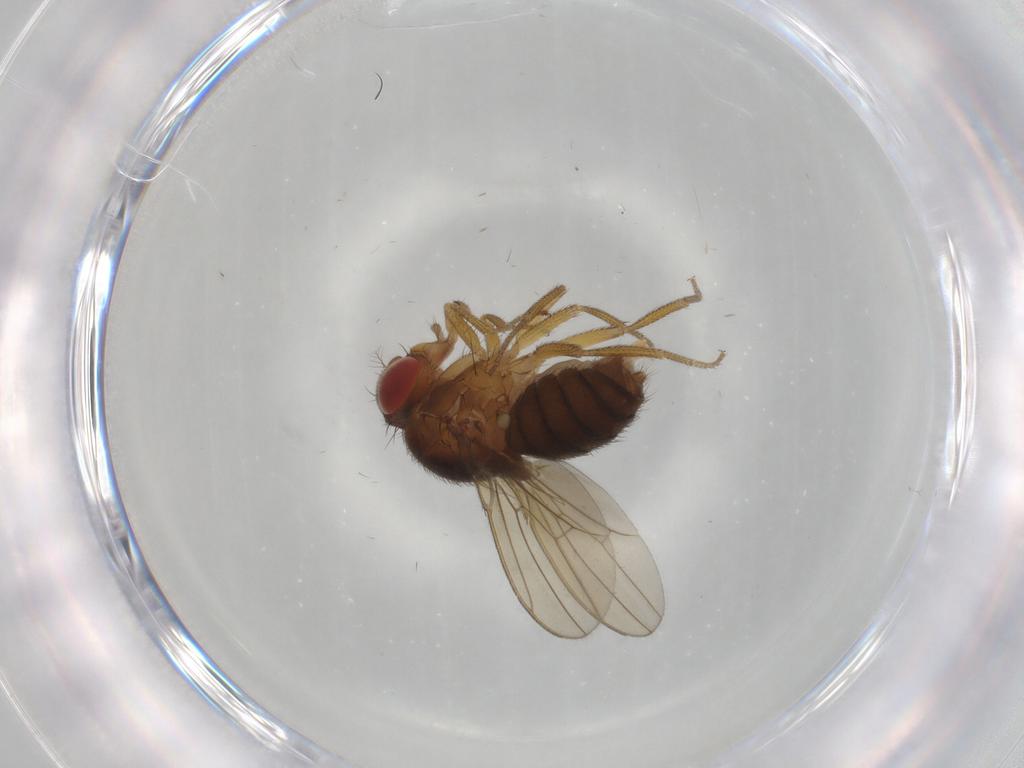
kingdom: Animalia
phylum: Arthropoda
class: Insecta
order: Diptera
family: Drosophilidae
